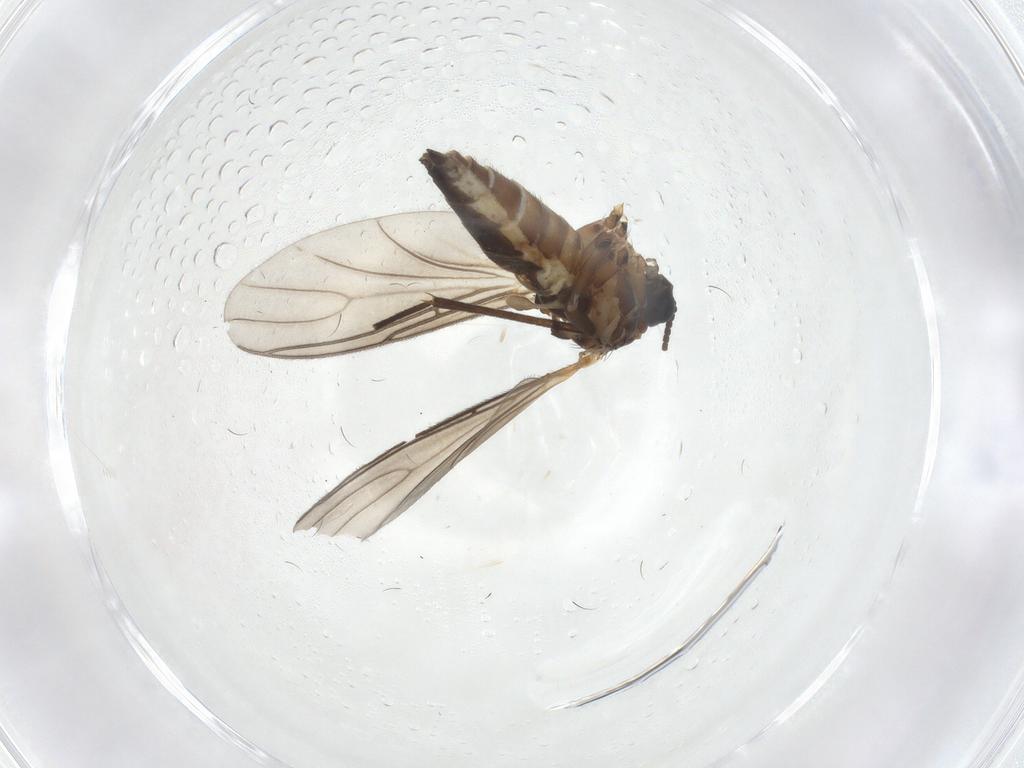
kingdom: Animalia
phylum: Arthropoda
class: Insecta
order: Diptera
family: Sciaridae
